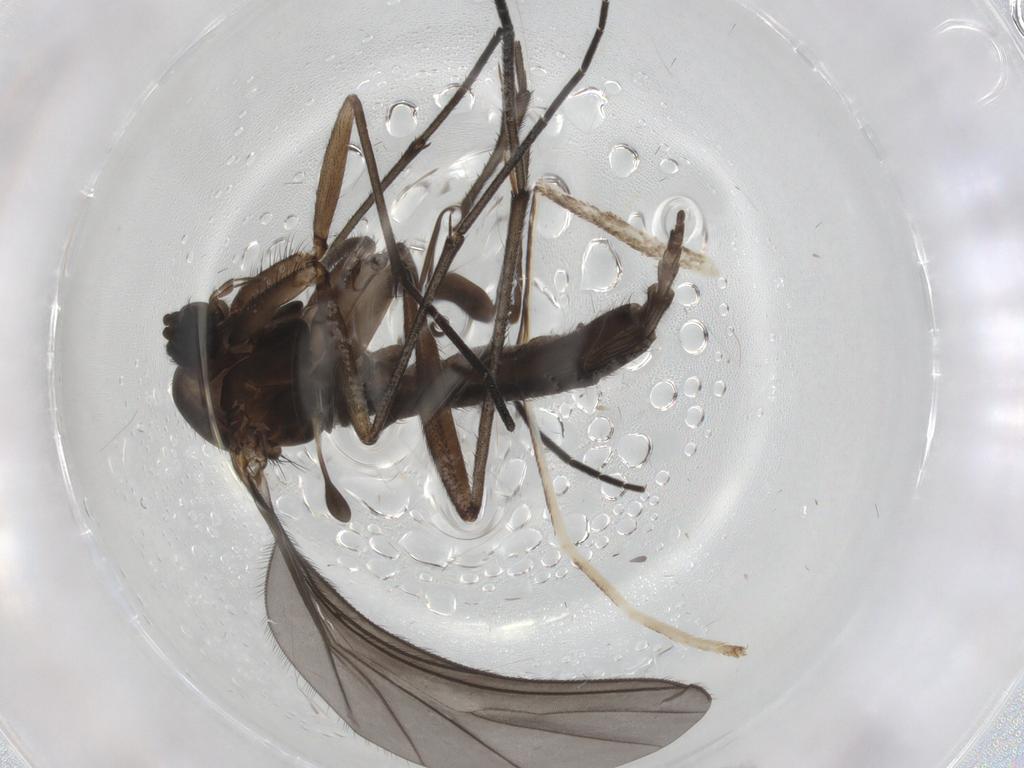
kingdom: Animalia
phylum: Arthropoda
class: Insecta
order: Diptera
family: Sciaridae
